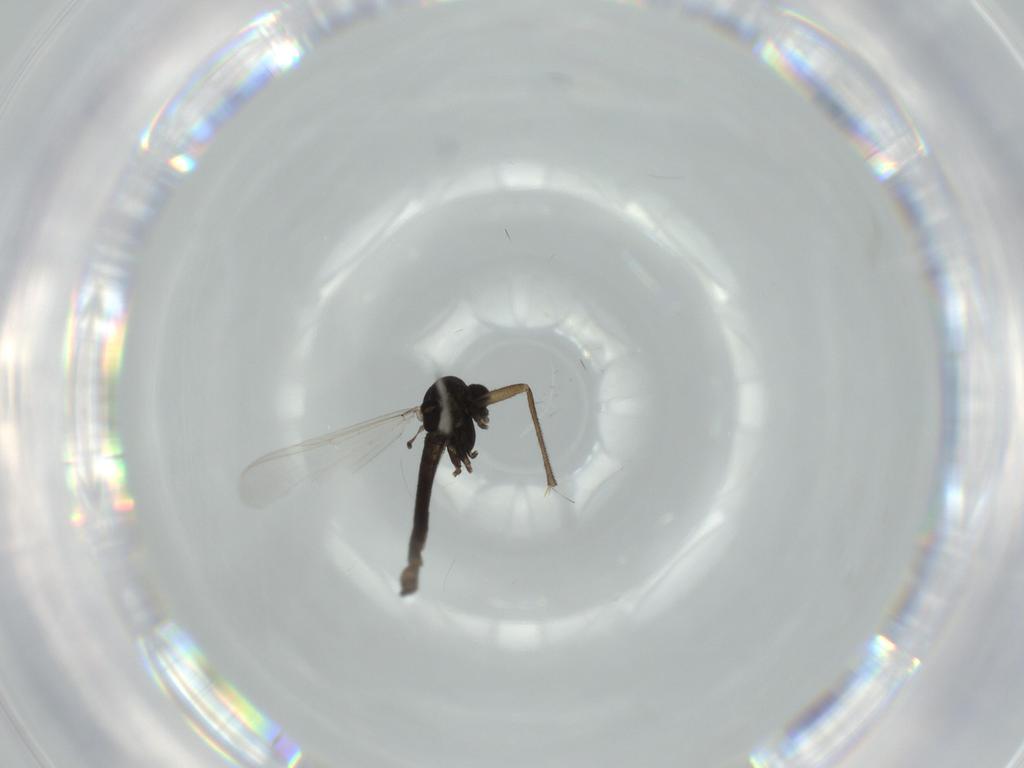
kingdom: Animalia
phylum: Arthropoda
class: Insecta
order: Diptera
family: Chironomidae
